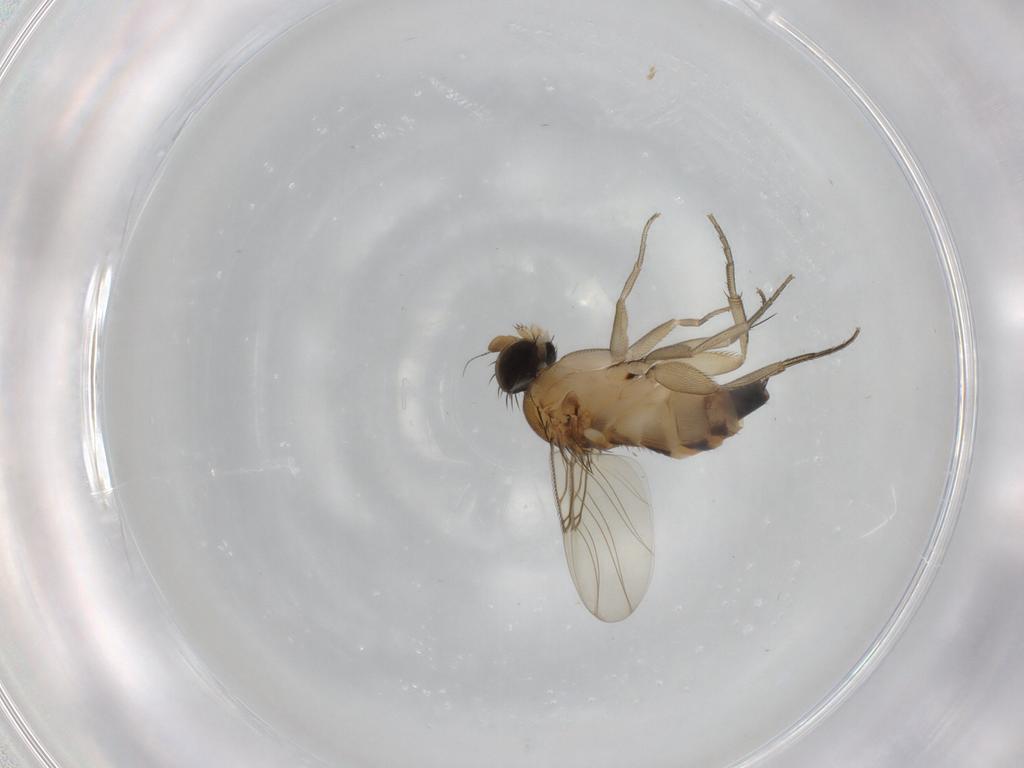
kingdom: Animalia
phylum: Arthropoda
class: Insecta
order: Diptera
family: Phoridae
